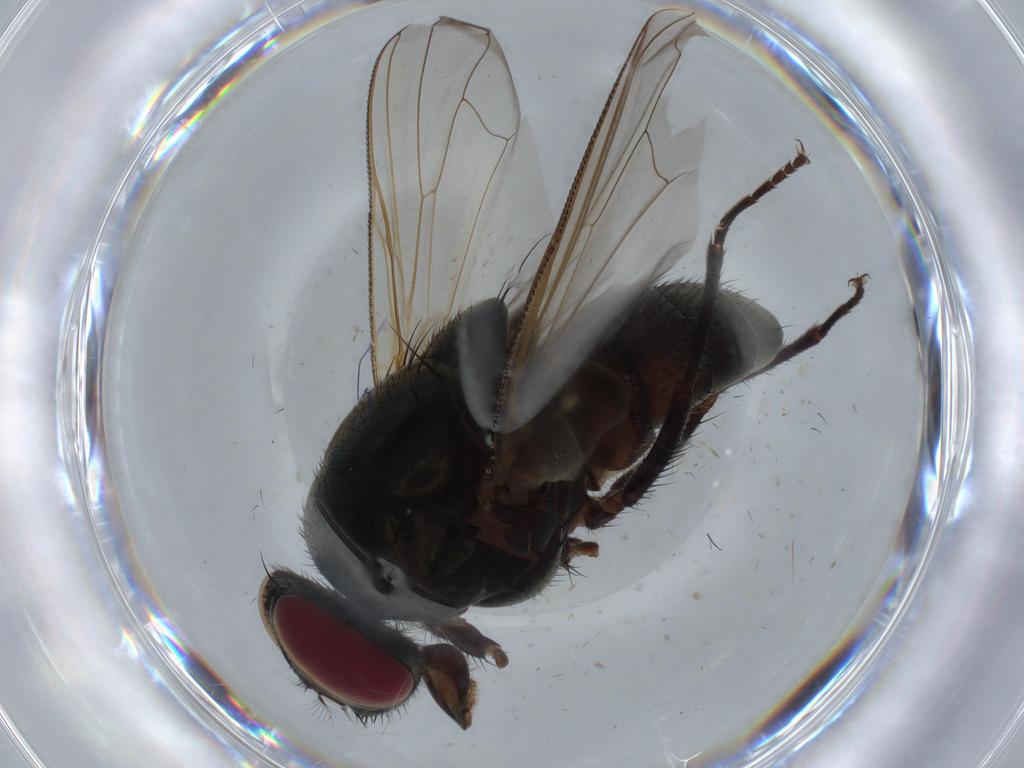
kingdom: Animalia
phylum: Arthropoda
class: Insecta
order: Diptera
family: Hybotidae
